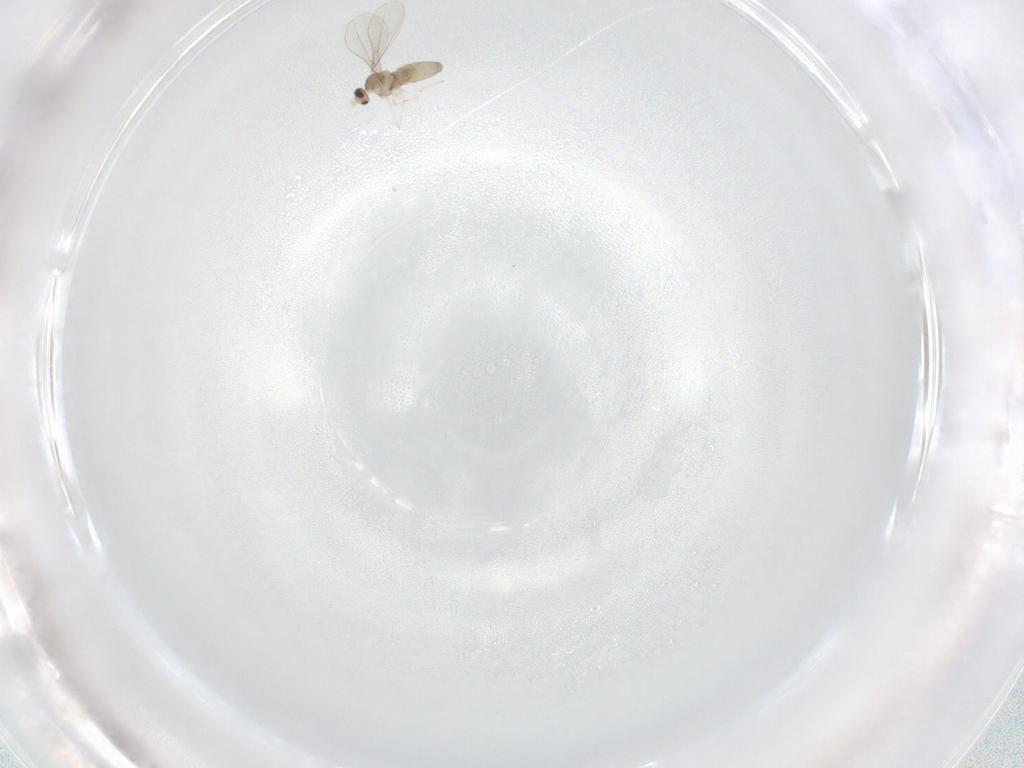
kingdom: Animalia
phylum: Arthropoda
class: Insecta
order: Diptera
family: Cecidomyiidae
